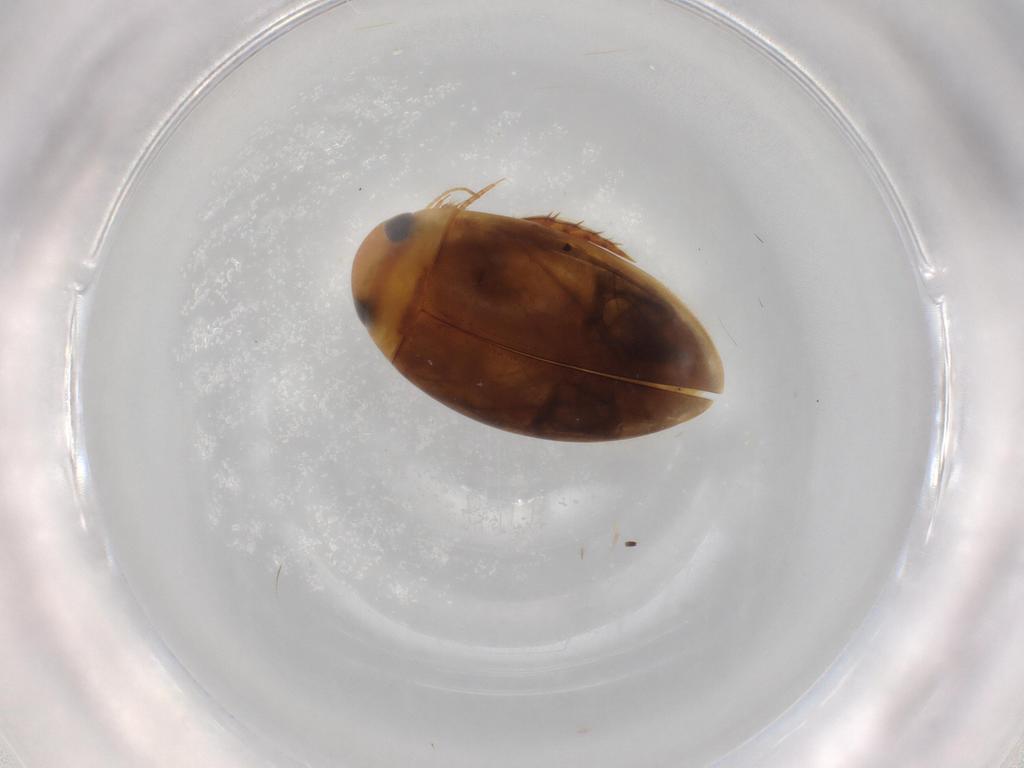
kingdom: Animalia
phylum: Arthropoda
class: Insecta
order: Coleoptera
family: Dytiscidae
